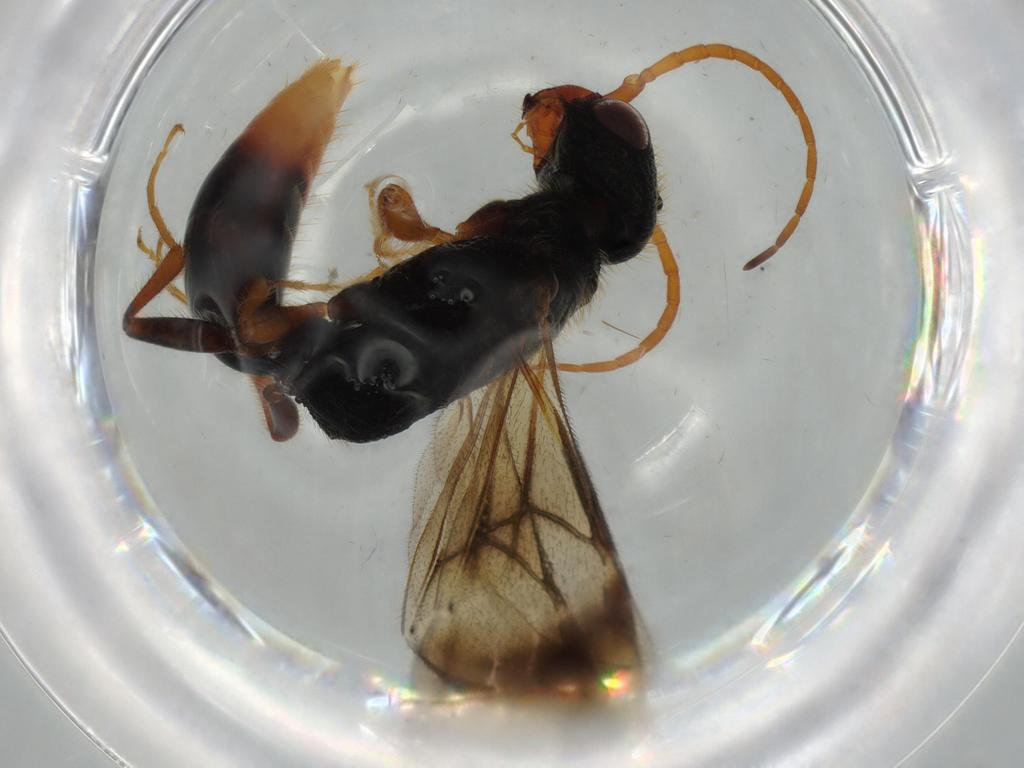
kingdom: Animalia
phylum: Arthropoda
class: Insecta
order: Hymenoptera
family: Bethylidae
